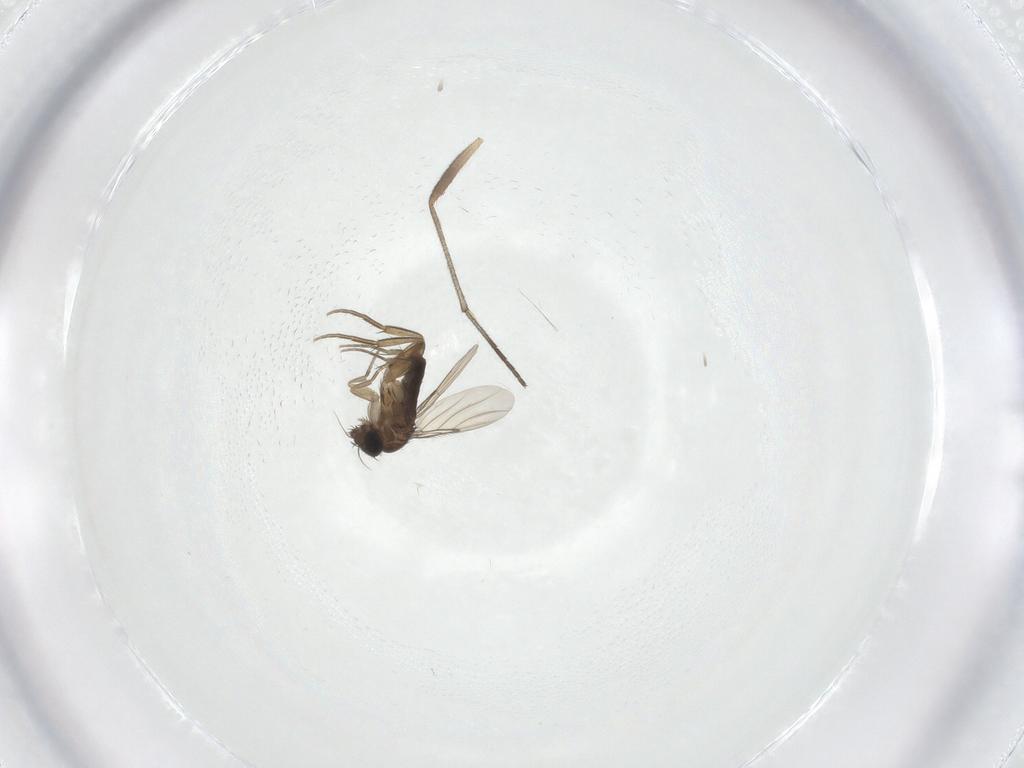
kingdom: Animalia
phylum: Arthropoda
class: Insecta
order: Diptera
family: Phoridae
